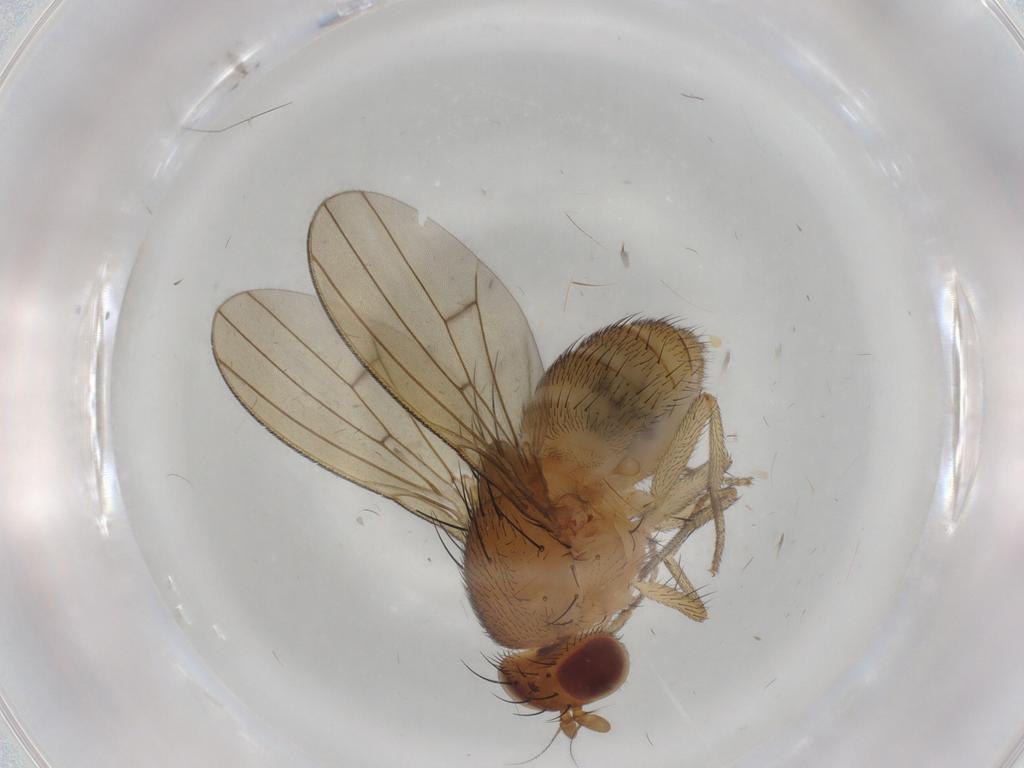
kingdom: Animalia
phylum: Arthropoda
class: Insecta
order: Diptera
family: Lauxaniidae
